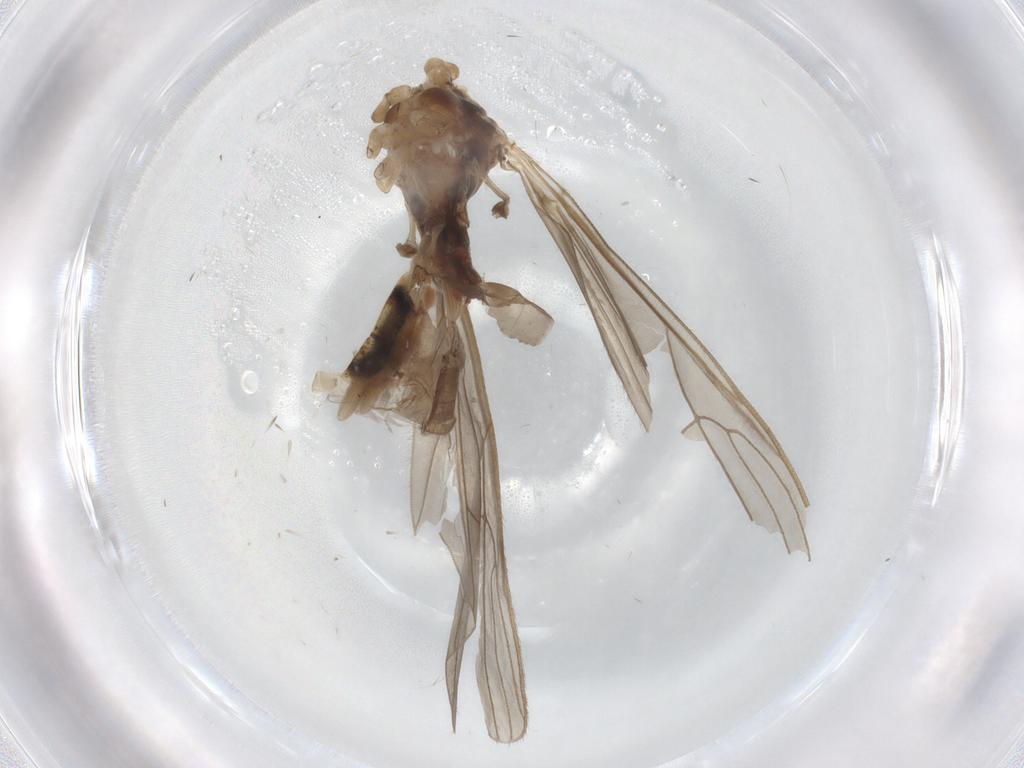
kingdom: Animalia
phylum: Arthropoda
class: Insecta
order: Diptera
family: Limoniidae
